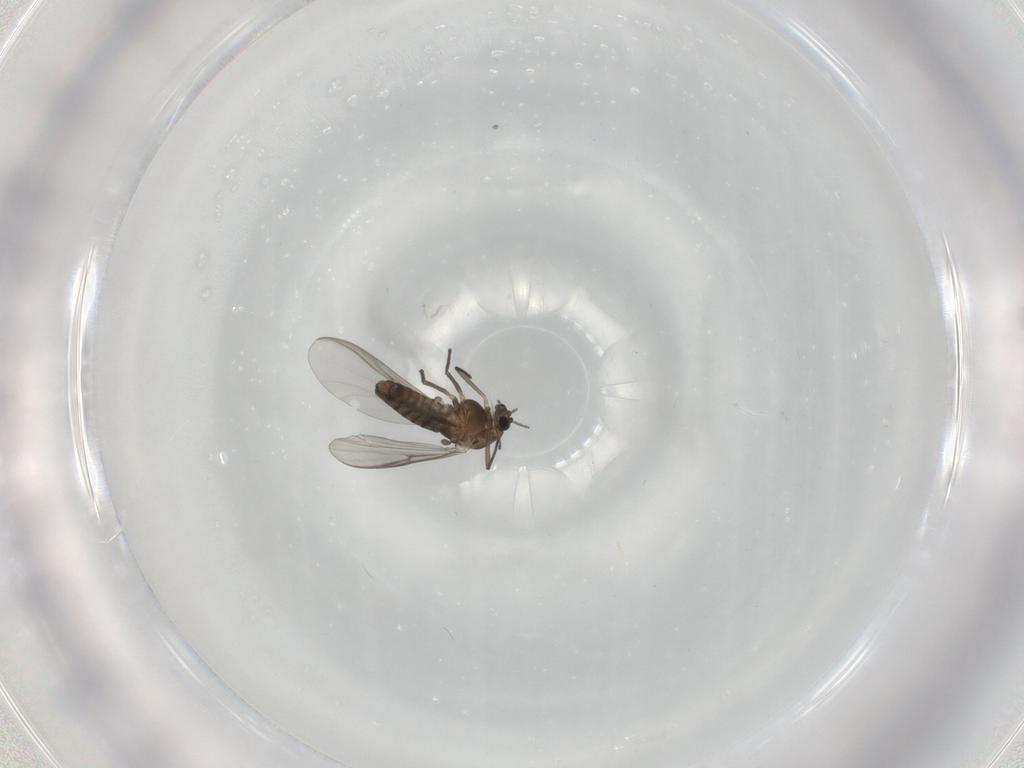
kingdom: Animalia
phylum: Arthropoda
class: Insecta
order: Diptera
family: Chironomidae
